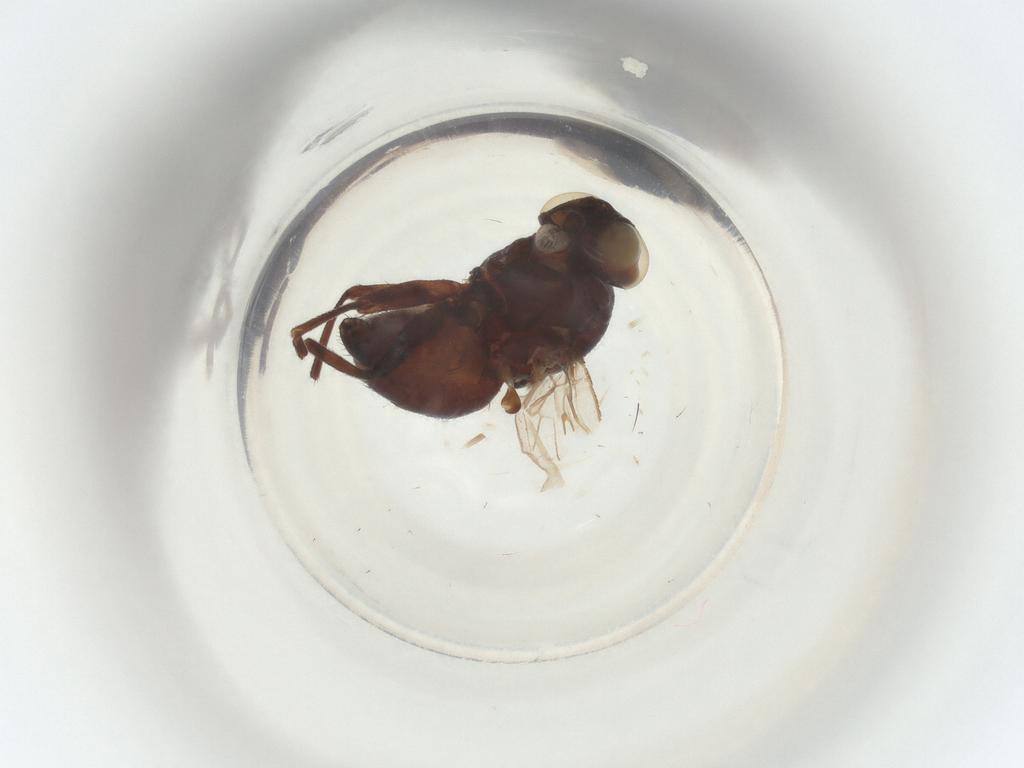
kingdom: Animalia
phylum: Arthropoda
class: Insecta
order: Diptera
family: Agromyzidae
